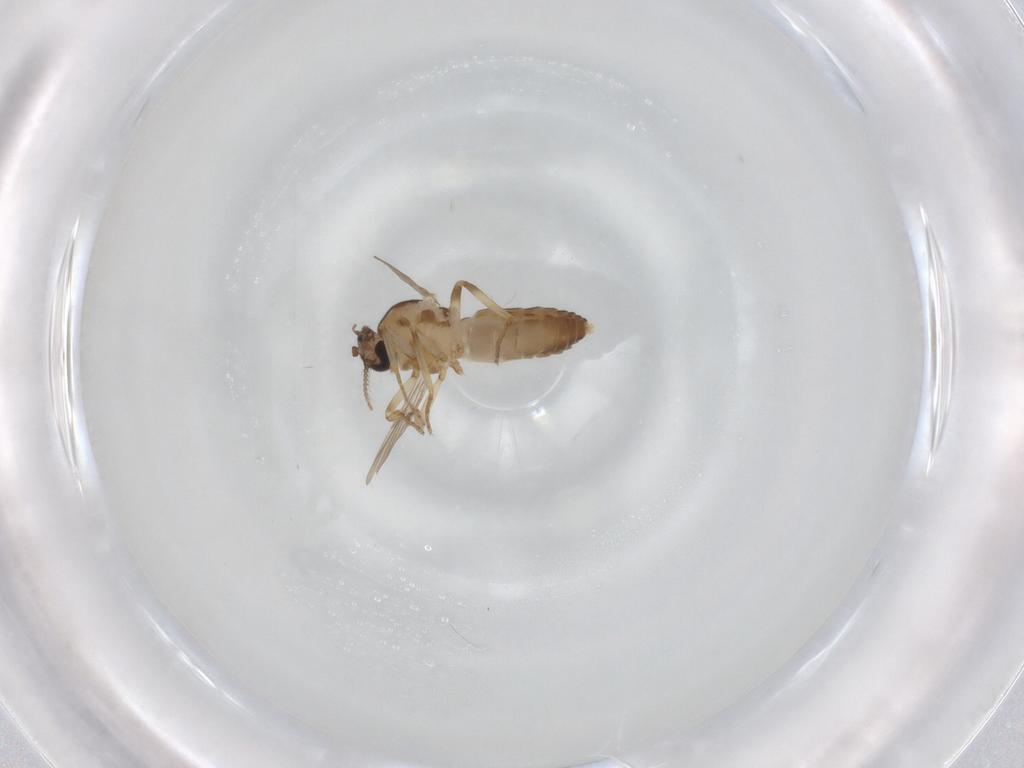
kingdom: Animalia
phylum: Arthropoda
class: Insecta
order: Diptera
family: Ceratopogonidae
